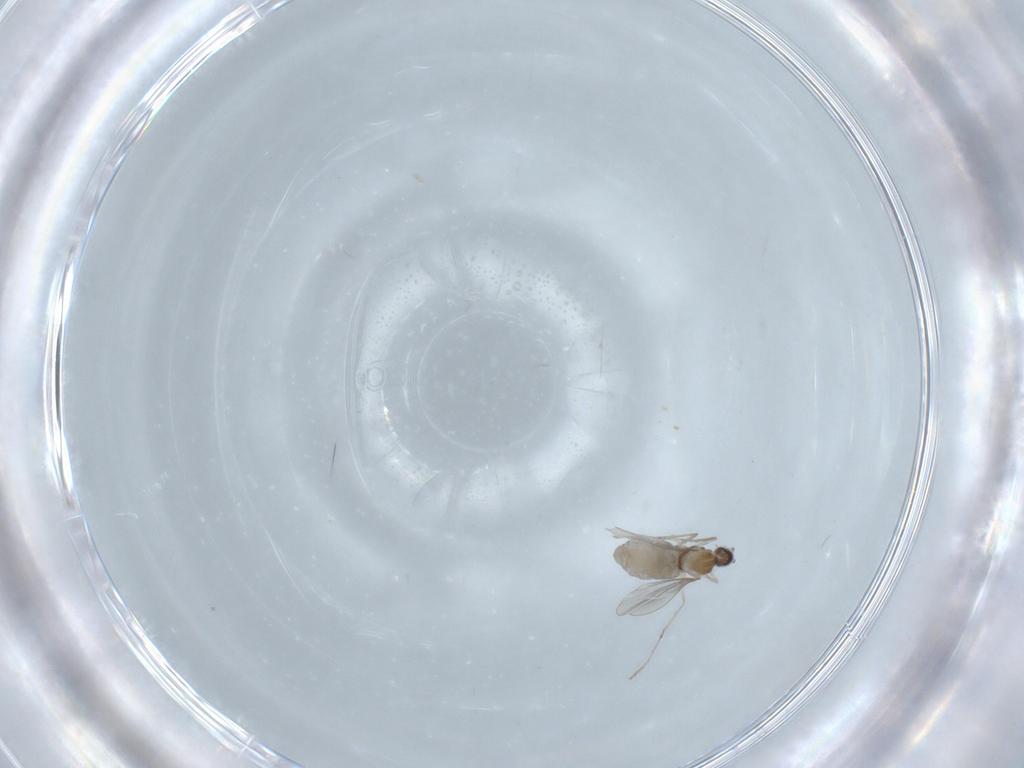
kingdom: Animalia
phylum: Arthropoda
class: Insecta
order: Diptera
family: Cecidomyiidae
